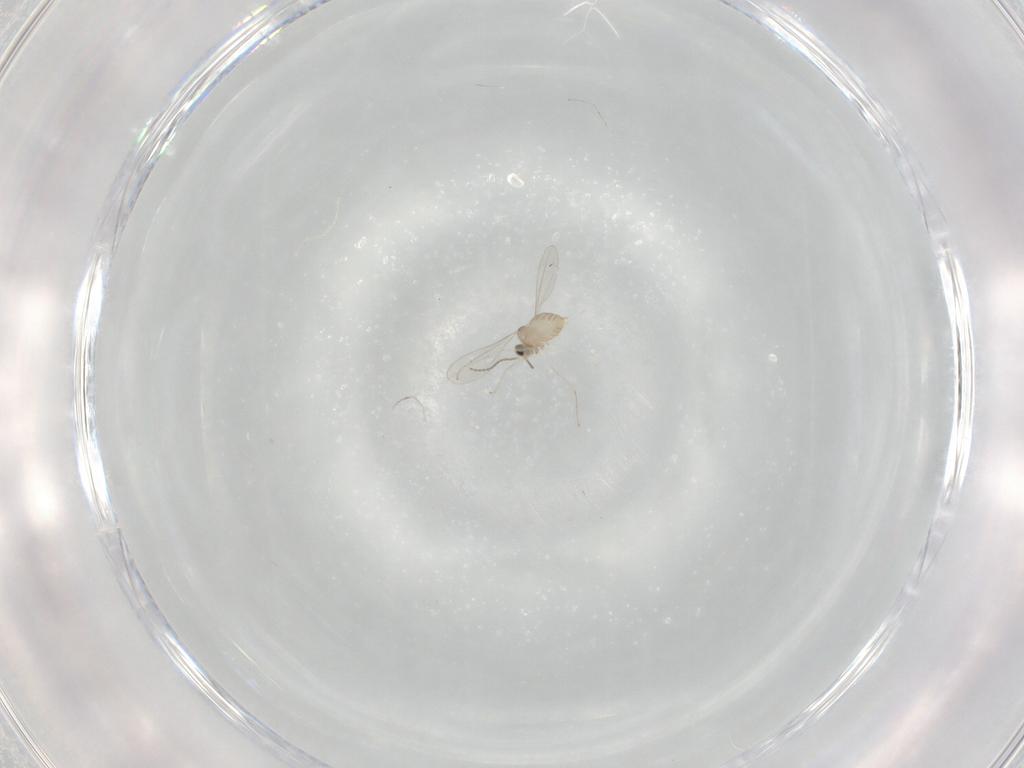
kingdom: Animalia
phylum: Arthropoda
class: Insecta
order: Diptera
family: Cecidomyiidae
